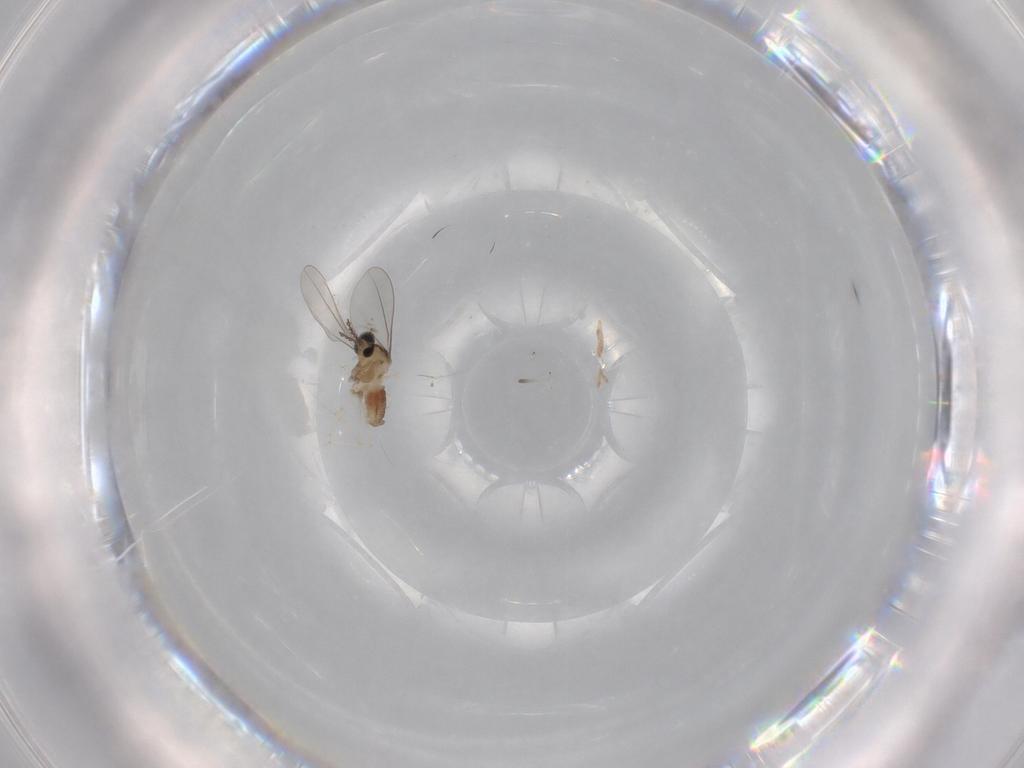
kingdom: Animalia
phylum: Arthropoda
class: Insecta
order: Diptera
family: Cecidomyiidae
